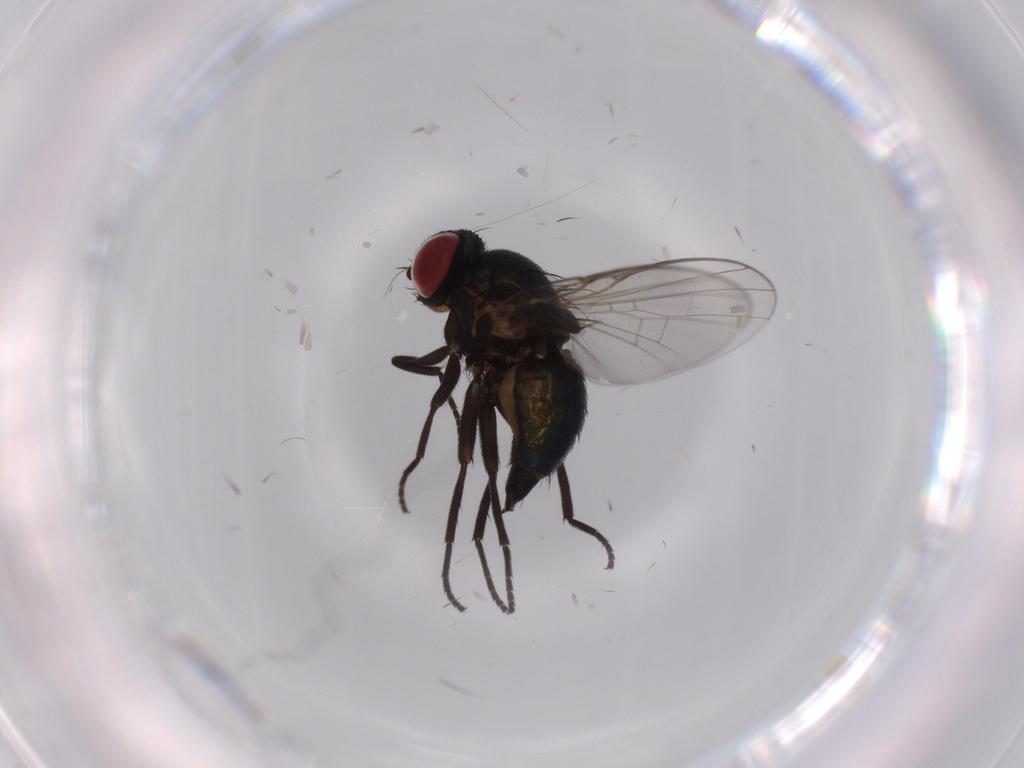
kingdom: Animalia
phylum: Arthropoda
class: Insecta
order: Diptera
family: Agromyzidae
